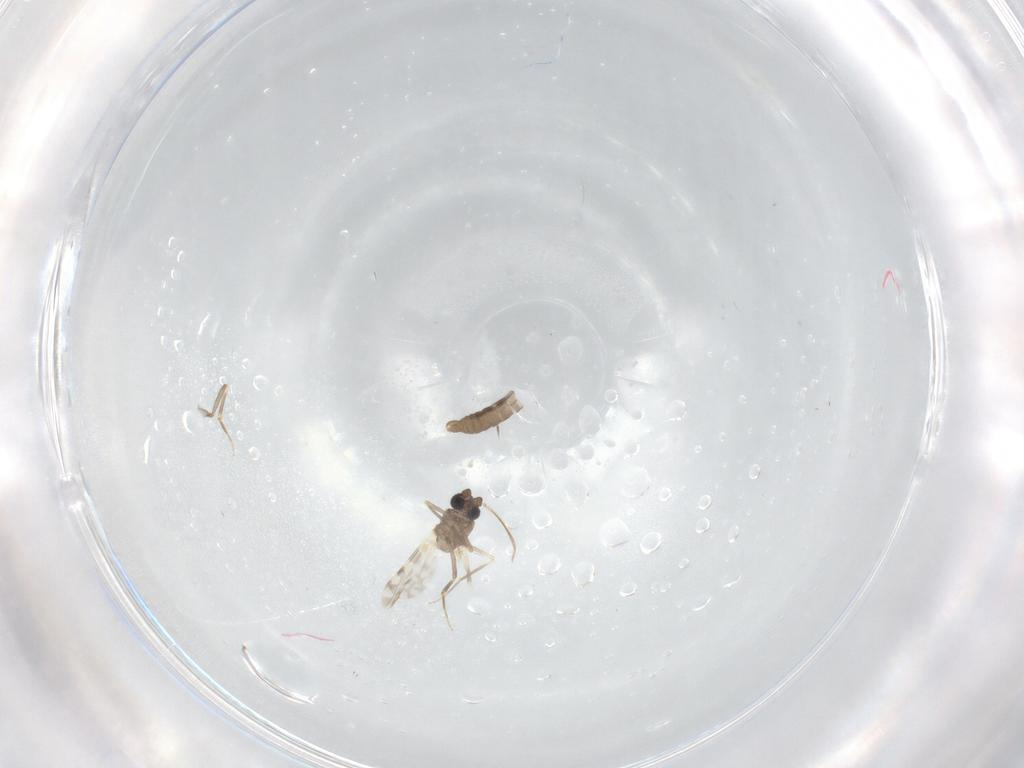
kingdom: Animalia
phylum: Arthropoda
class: Insecta
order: Diptera
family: Ceratopogonidae
